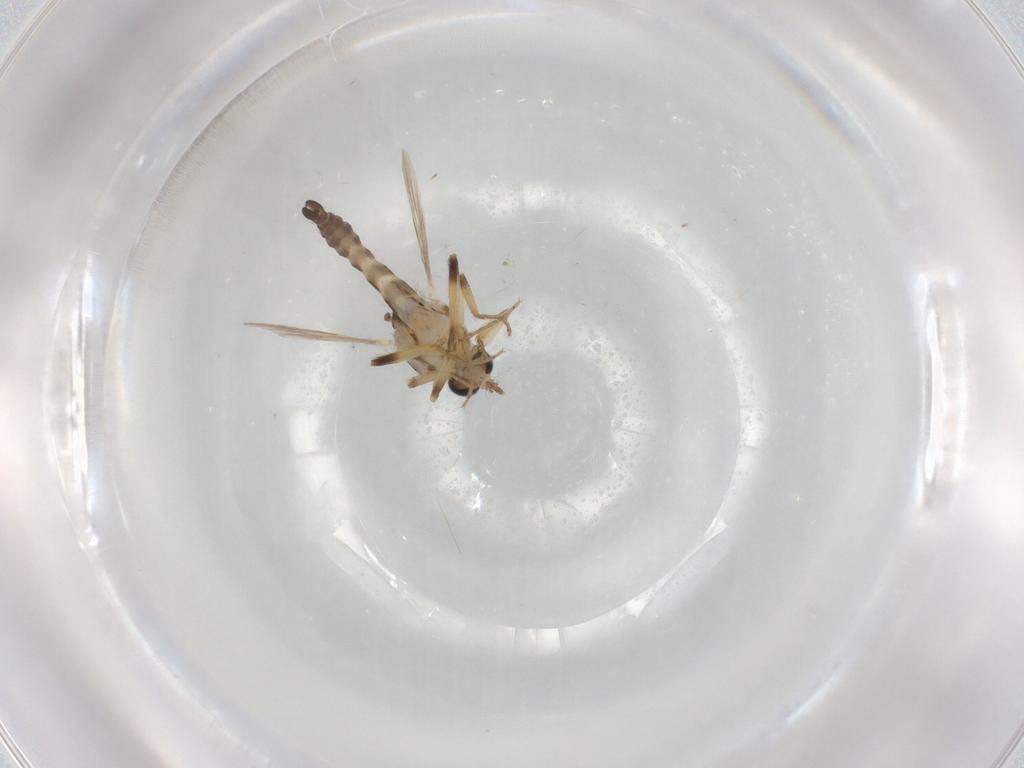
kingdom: Animalia
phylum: Arthropoda
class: Insecta
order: Diptera
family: Ceratopogonidae
